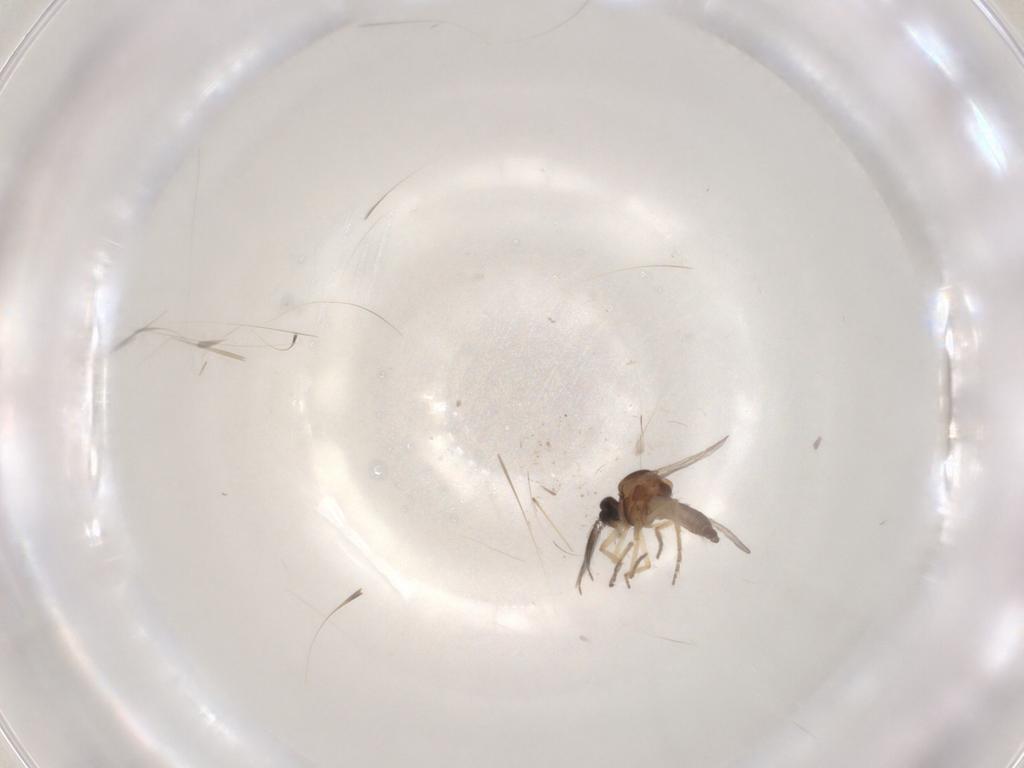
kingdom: Animalia
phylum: Arthropoda
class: Insecta
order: Diptera
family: Ceratopogonidae
